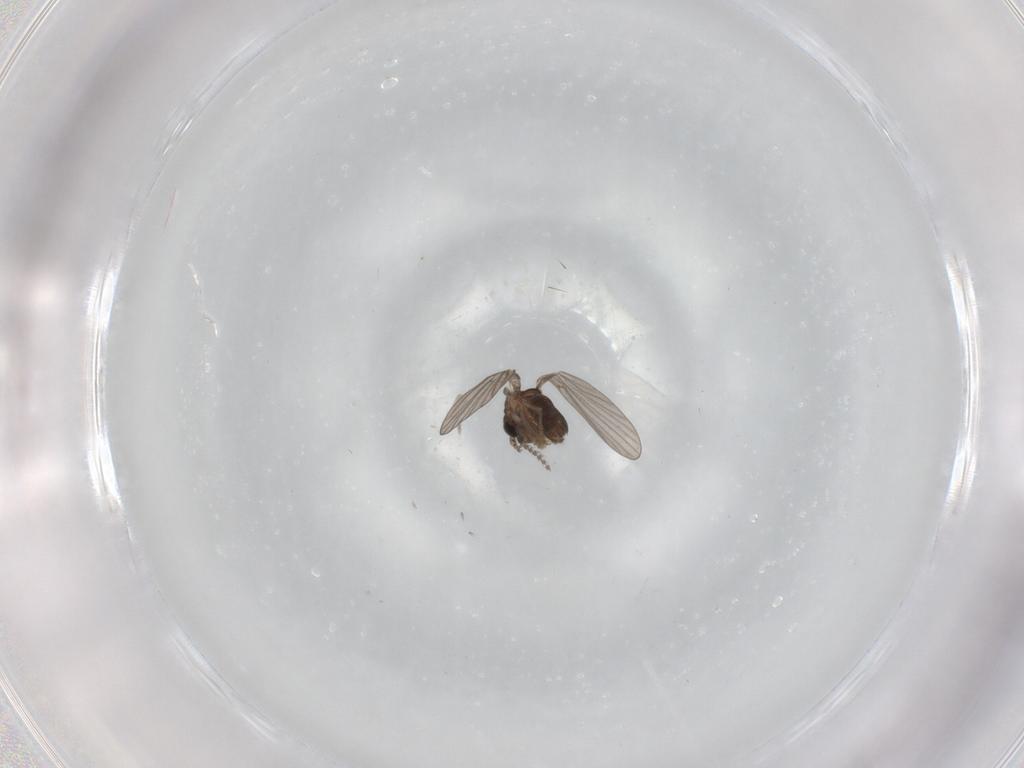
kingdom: Animalia
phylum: Arthropoda
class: Insecta
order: Diptera
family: Psychodidae
